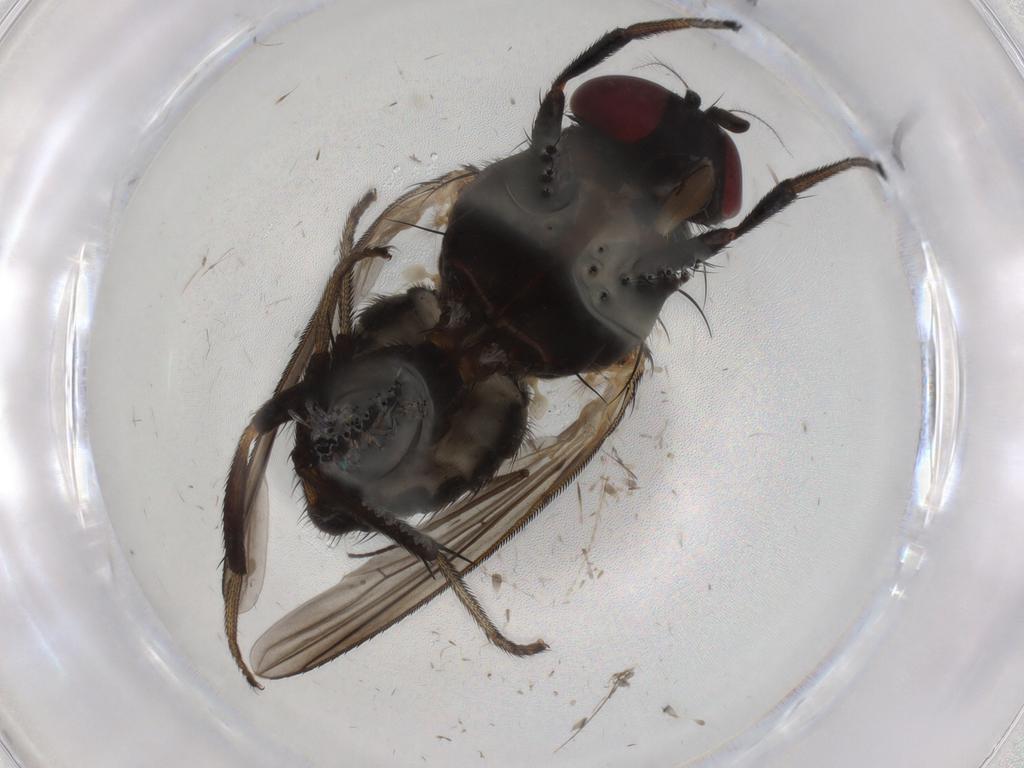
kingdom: Animalia
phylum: Arthropoda
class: Insecta
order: Diptera
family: Lauxaniidae
